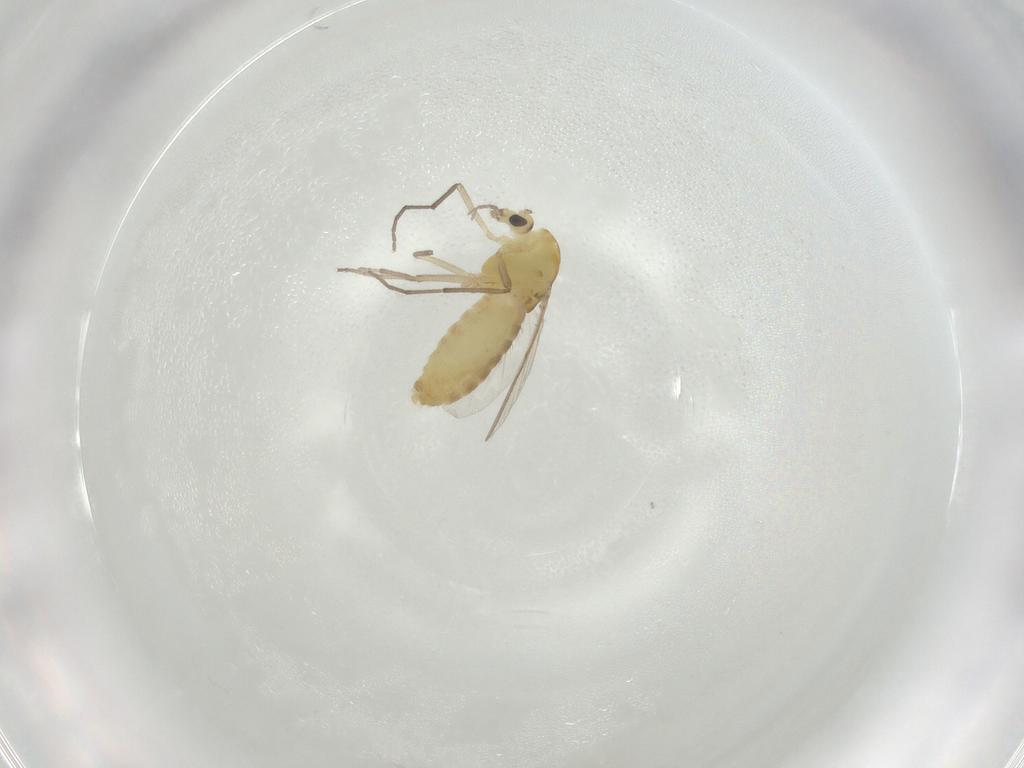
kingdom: Animalia
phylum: Arthropoda
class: Insecta
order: Diptera
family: Chironomidae
